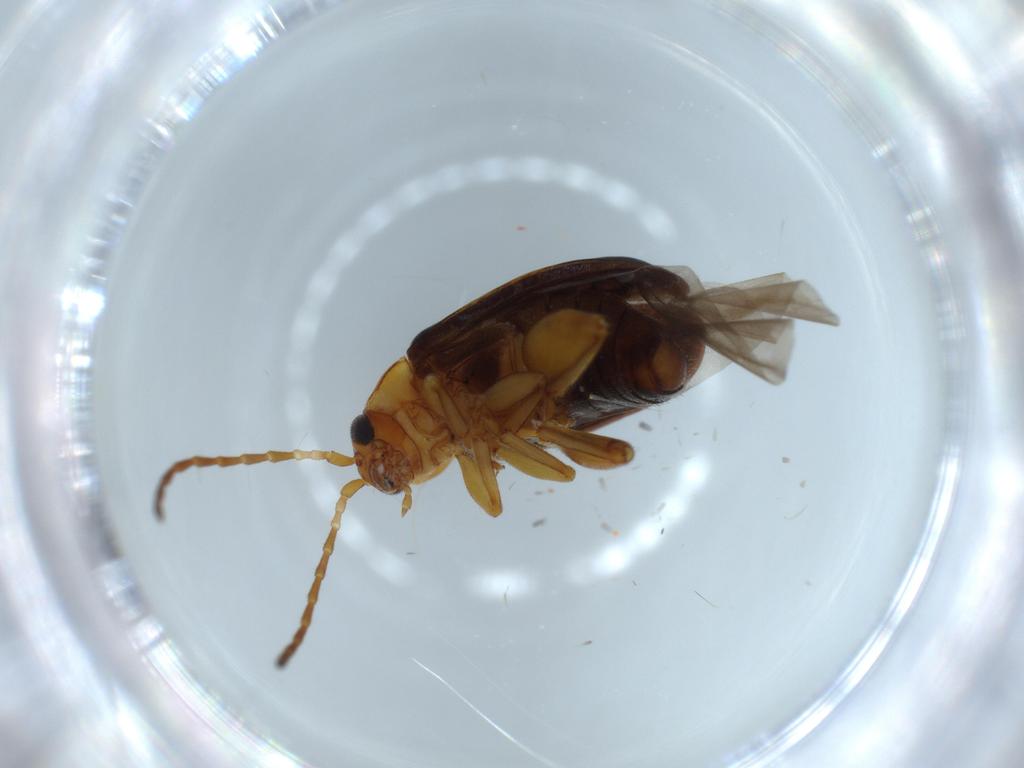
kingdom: Animalia
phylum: Arthropoda
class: Insecta
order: Coleoptera
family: Chrysomelidae
